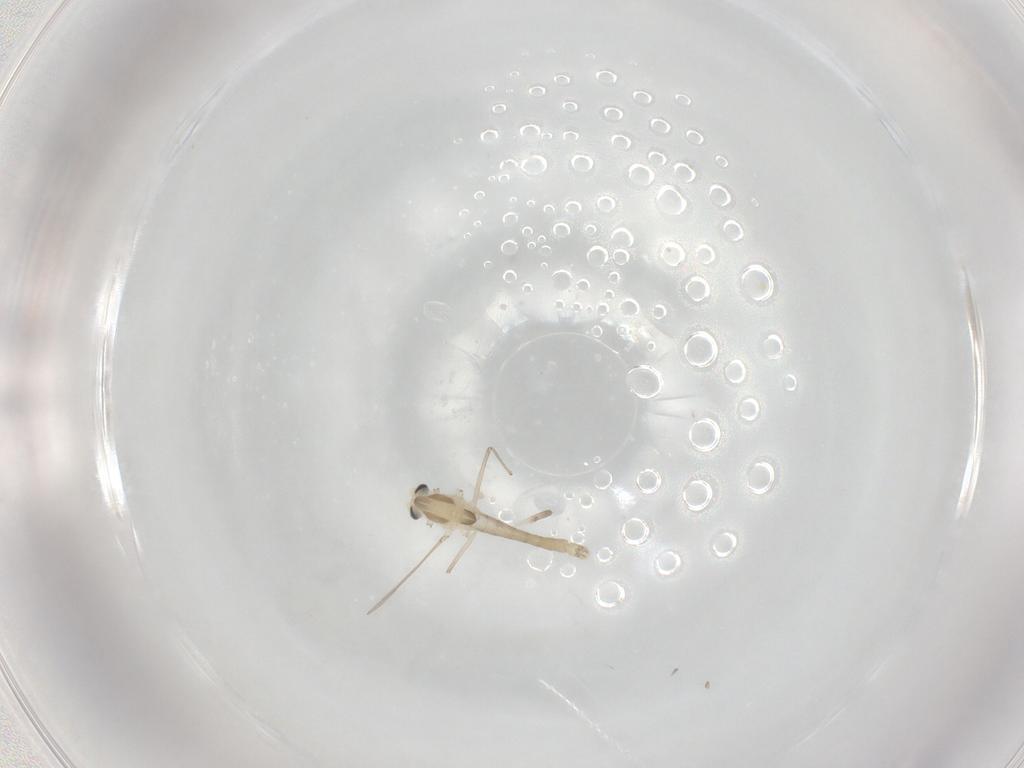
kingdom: Animalia
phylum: Arthropoda
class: Insecta
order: Diptera
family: Chironomidae
